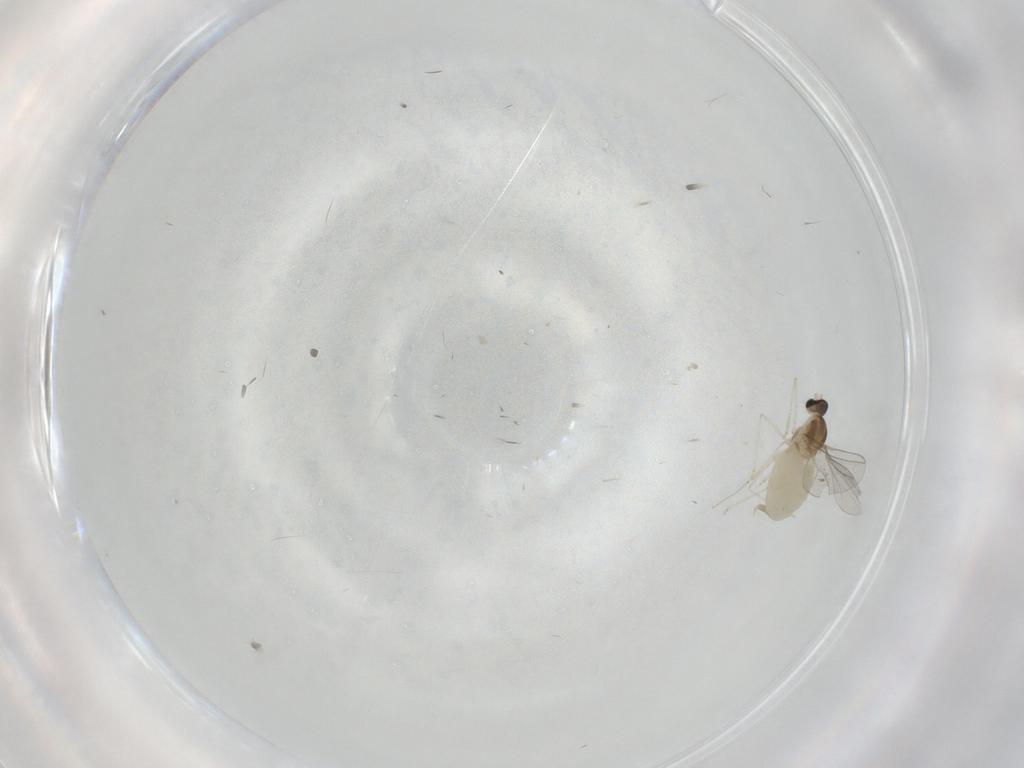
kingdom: Animalia
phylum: Arthropoda
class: Insecta
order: Diptera
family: Cecidomyiidae
